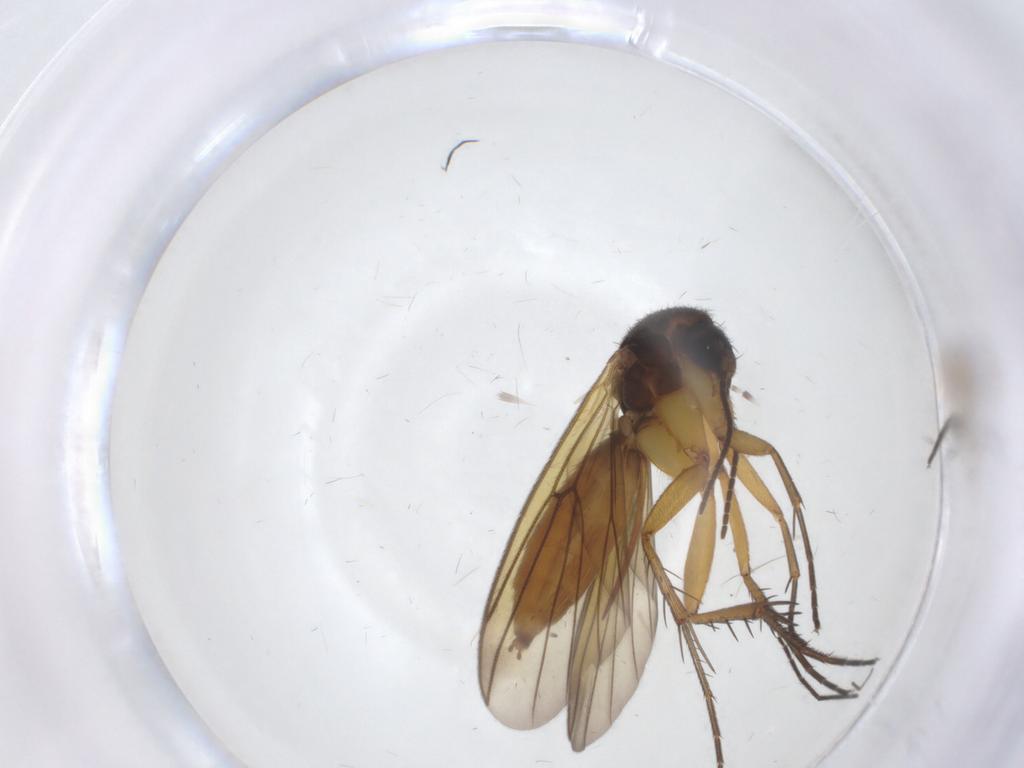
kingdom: Animalia
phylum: Arthropoda
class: Insecta
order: Diptera
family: Mycetophilidae
